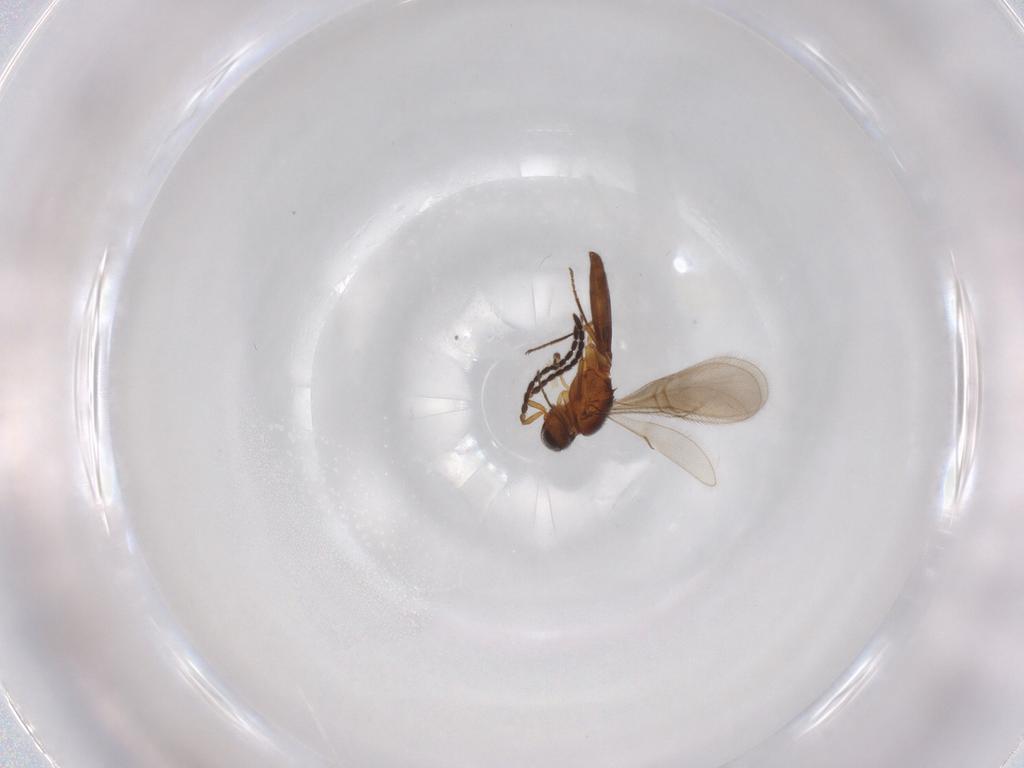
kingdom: Animalia
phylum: Arthropoda
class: Insecta
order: Hymenoptera
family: Scelionidae
